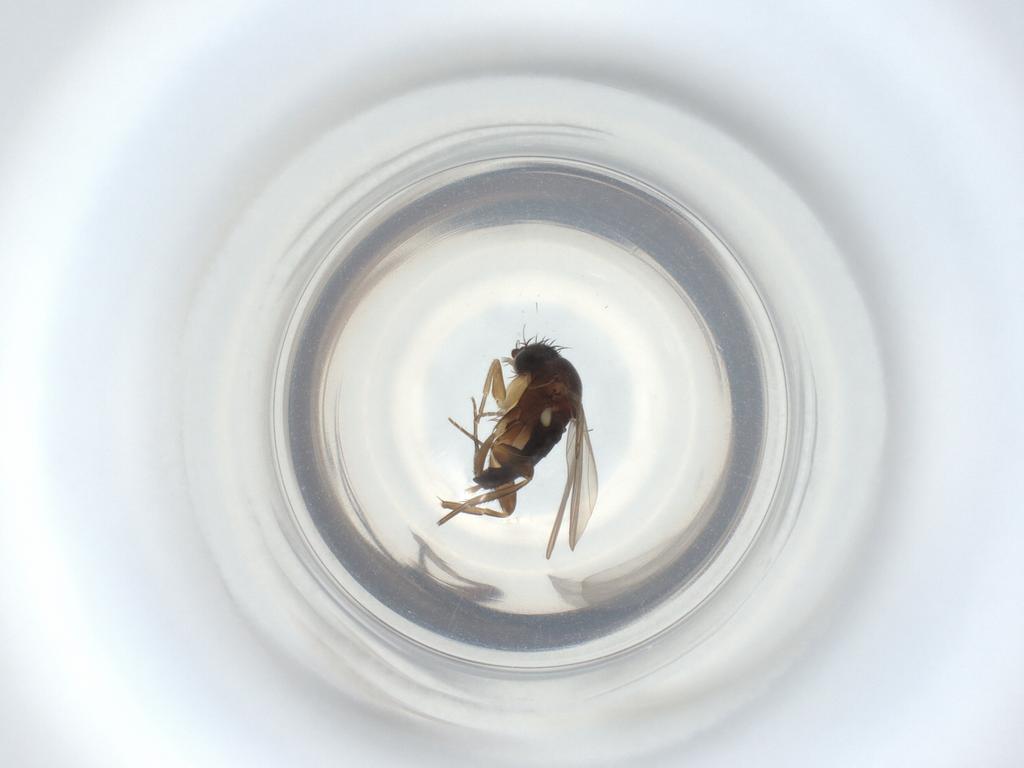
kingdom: Animalia
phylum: Arthropoda
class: Insecta
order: Diptera
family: Phoridae
